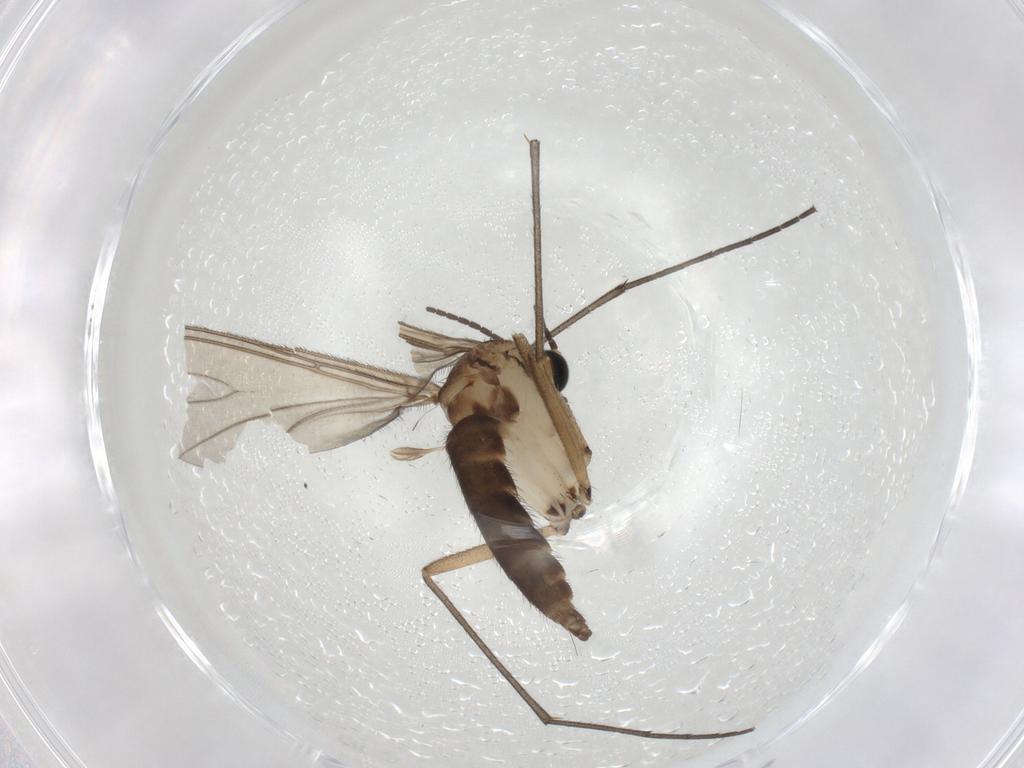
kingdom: Animalia
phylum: Arthropoda
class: Insecta
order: Diptera
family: Sciaridae
